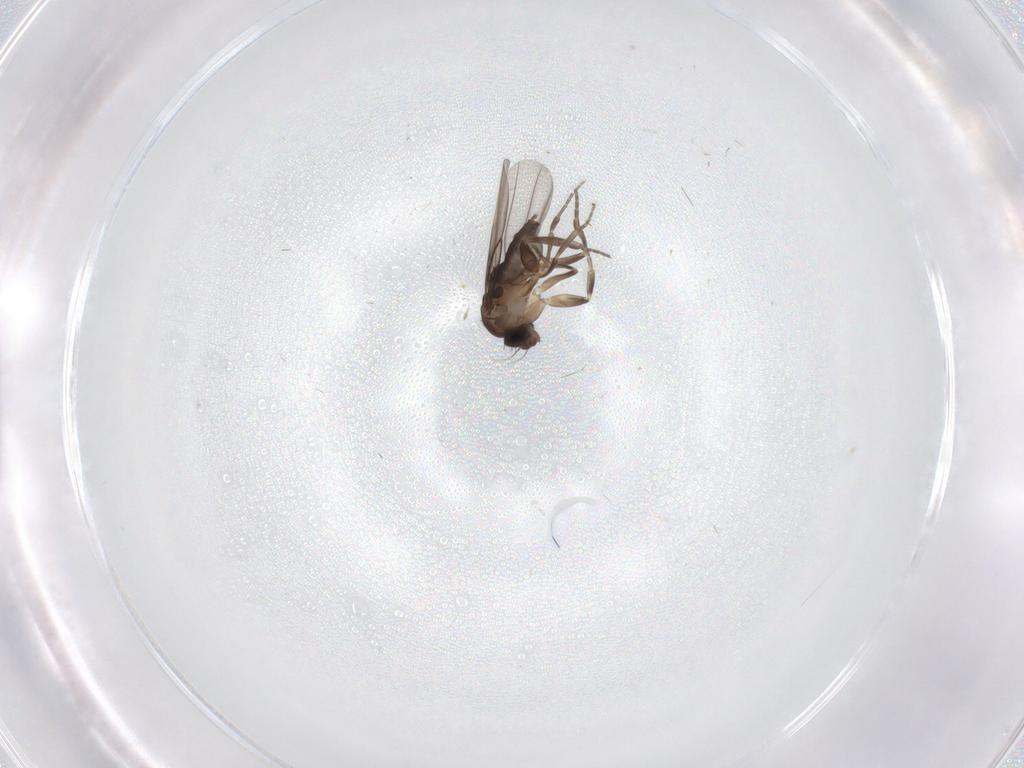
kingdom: Animalia
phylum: Arthropoda
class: Insecta
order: Diptera
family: Phoridae
